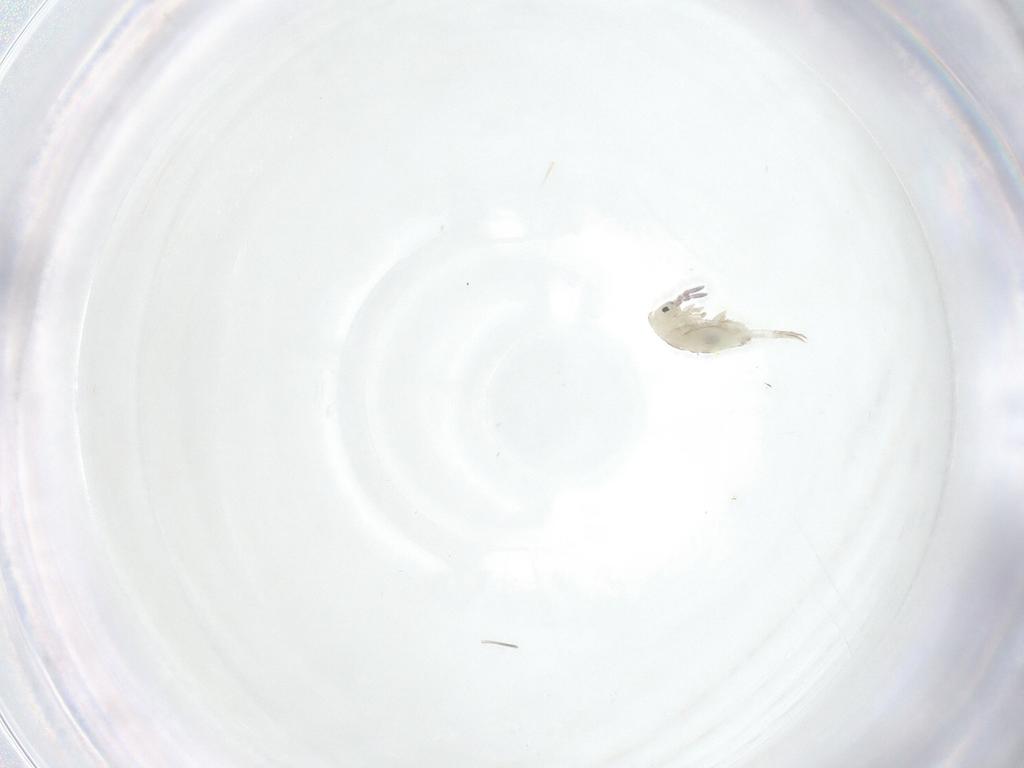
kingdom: Animalia
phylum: Arthropoda
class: Collembola
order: Entomobryomorpha
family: Entomobryidae
